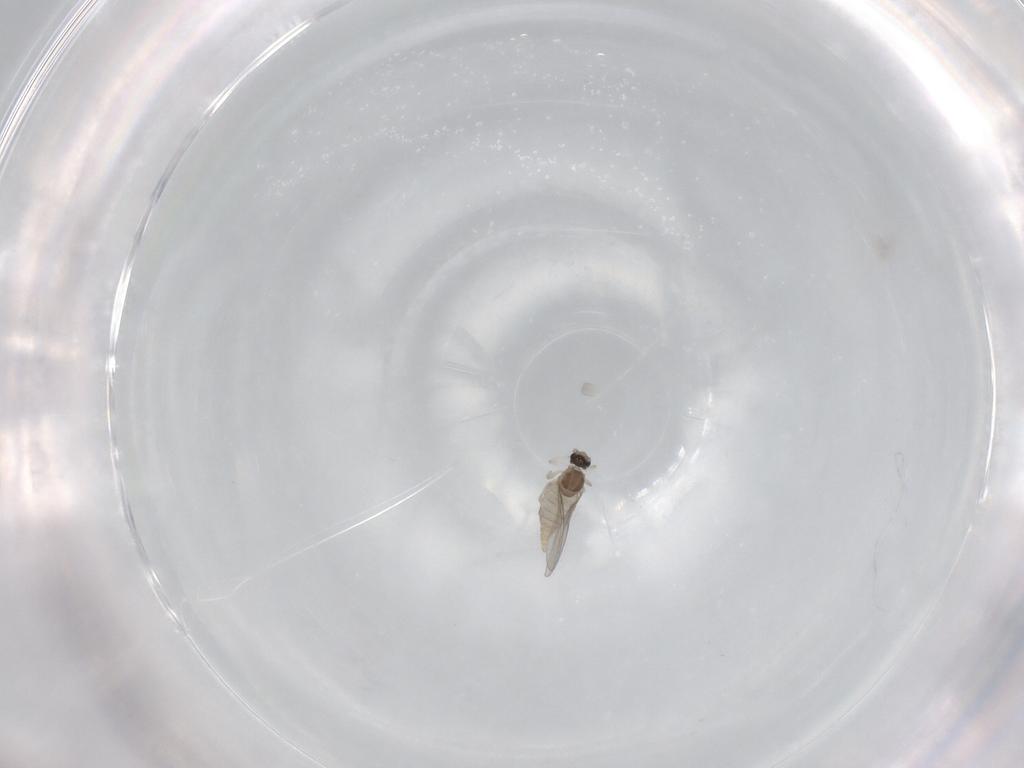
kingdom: Animalia
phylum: Arthropoda
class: Insecta
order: Diptera
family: Cecidomyiidae
